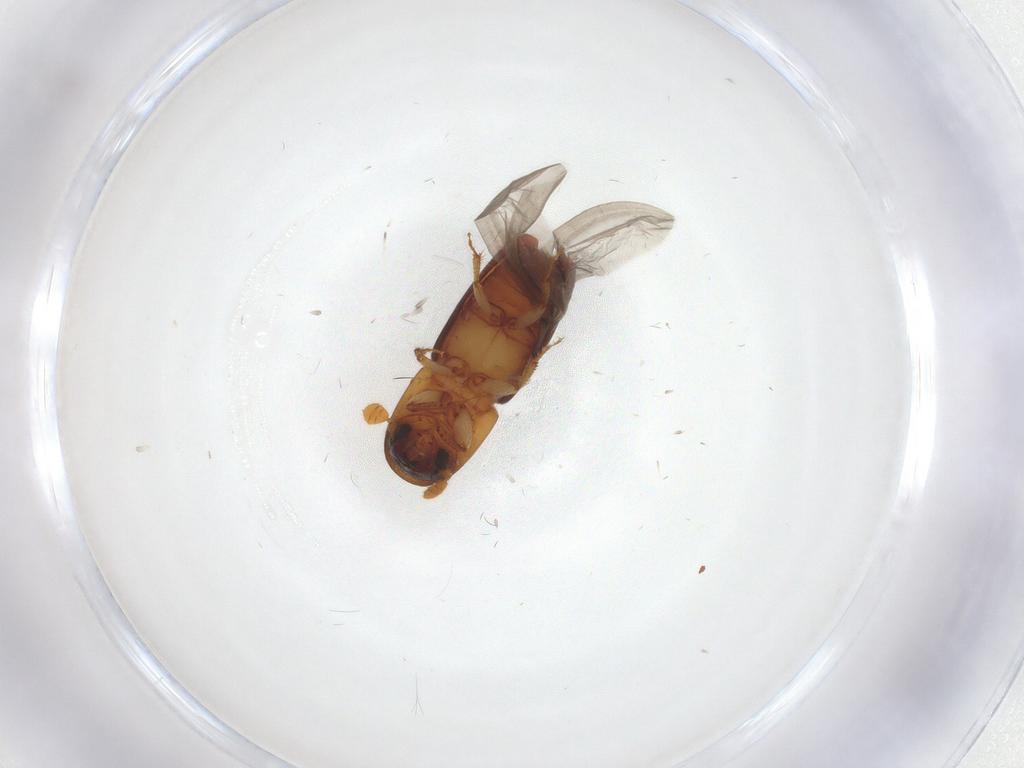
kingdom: Animalia
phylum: Arthropoda
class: Insecta
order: Coleoptera
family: Curculionidae
